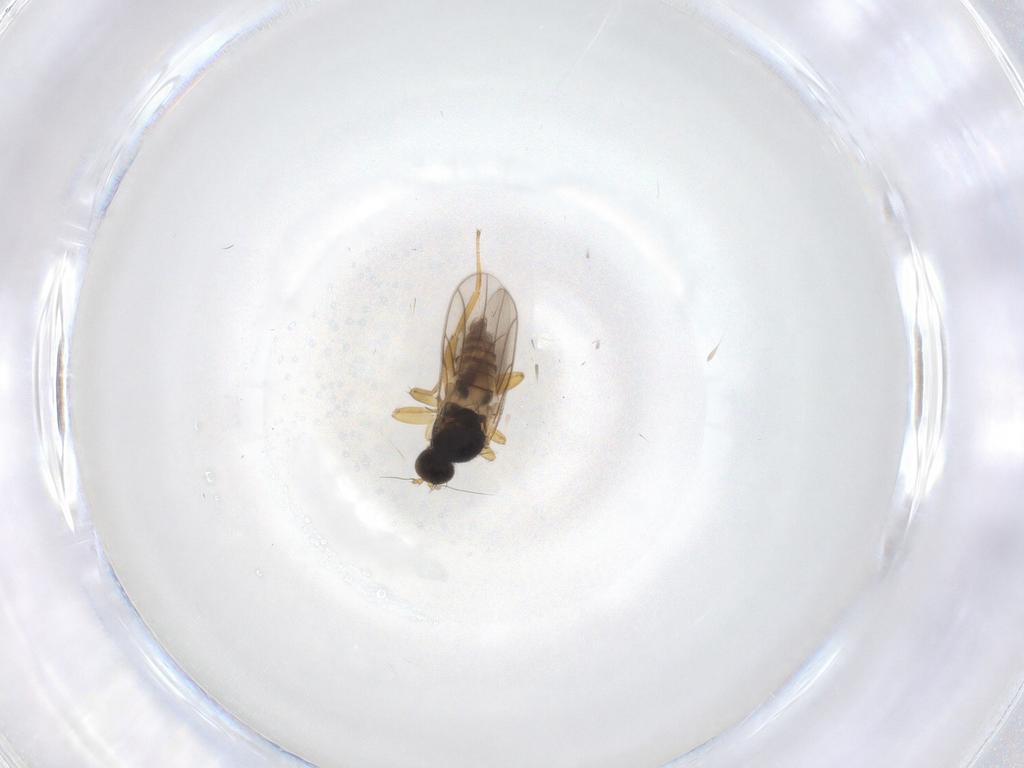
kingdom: Animalia
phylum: Arthropoda
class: Insecta
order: Diptera
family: Hybotidae
